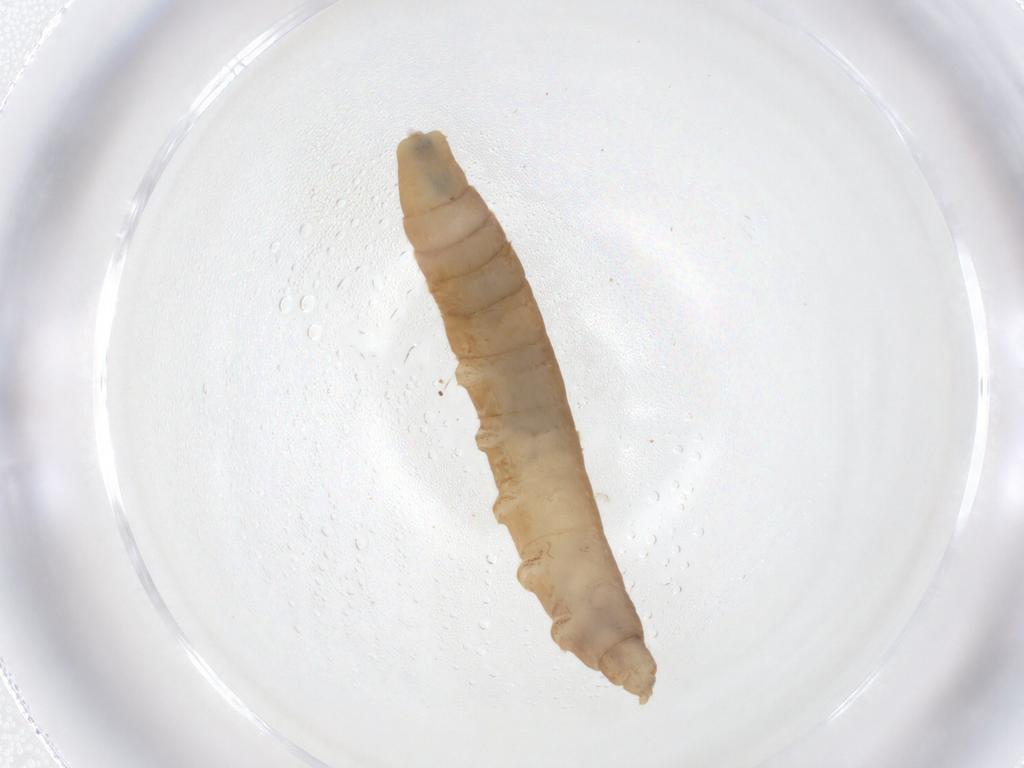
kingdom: Animalia
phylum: Arthropoda
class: Insecta
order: Diptera
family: Pediciidae
